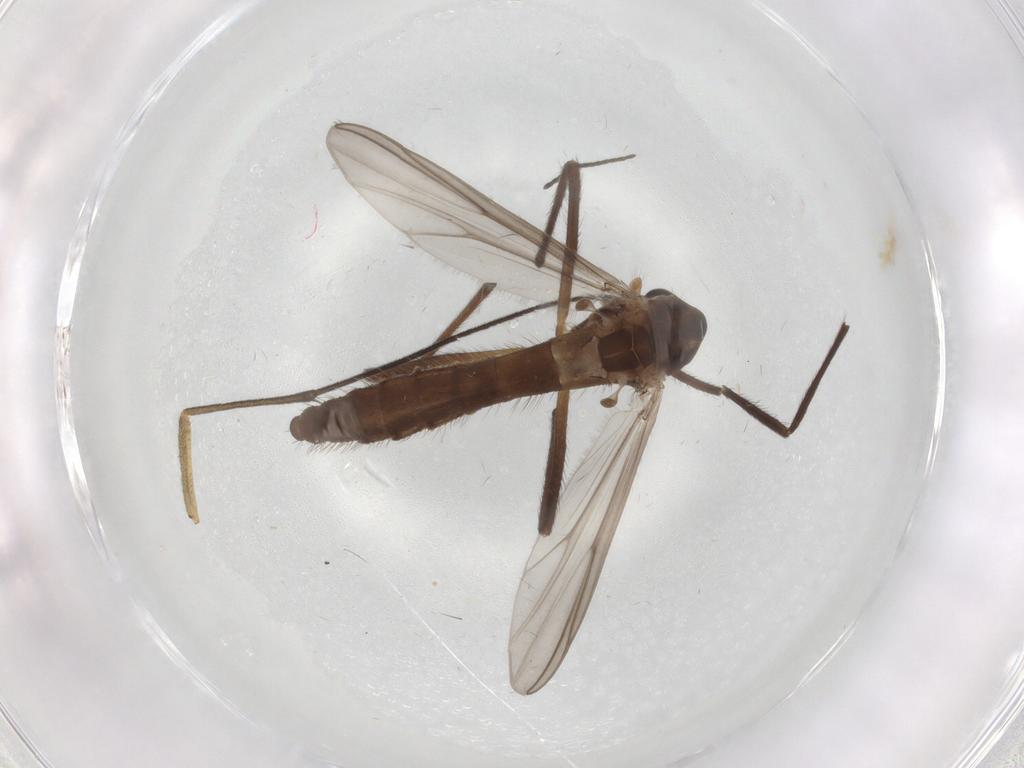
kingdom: Animalia
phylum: Arthropoda
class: Insecta
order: Diptera
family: Chironomidae
